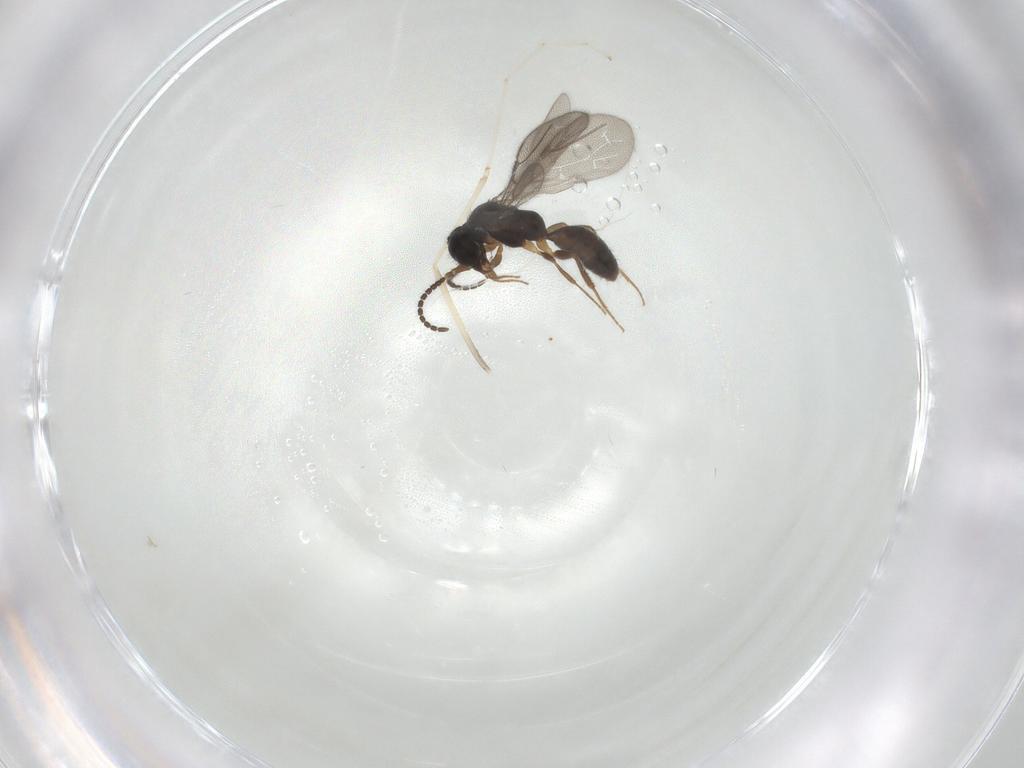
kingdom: Animalia
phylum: Arthropoda
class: Insecta
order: Hymenoptera
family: Bethylidae
